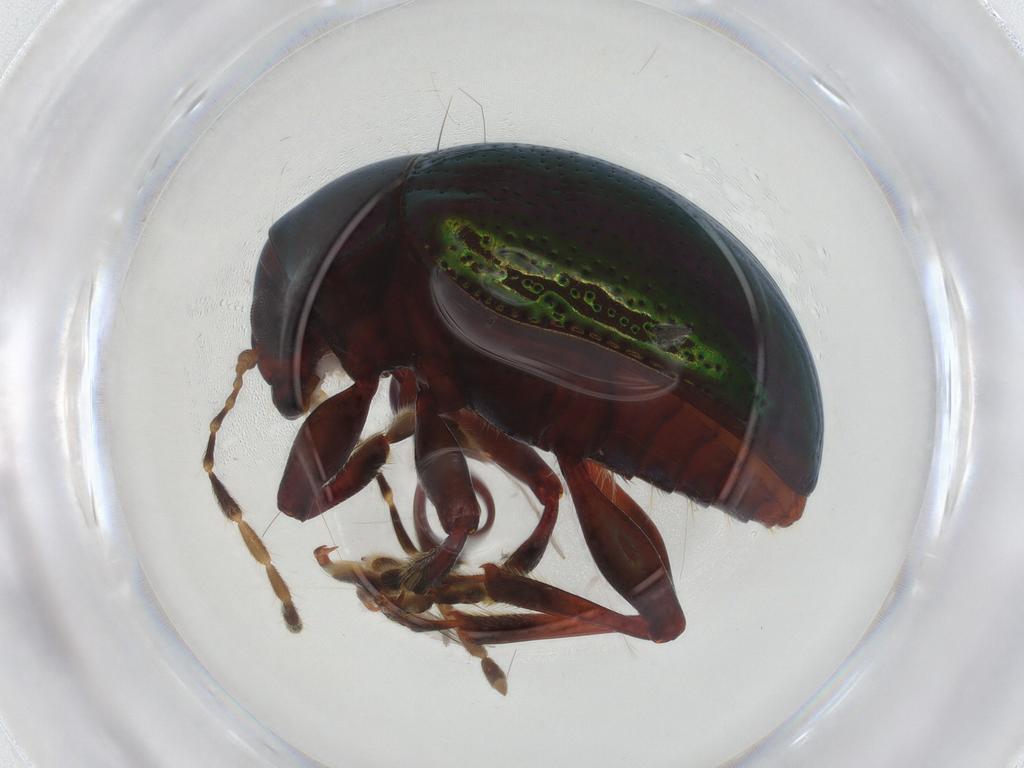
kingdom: Animalia
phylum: Arthropoda
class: Insecta
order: Coleoptera
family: Chrysomelidae
